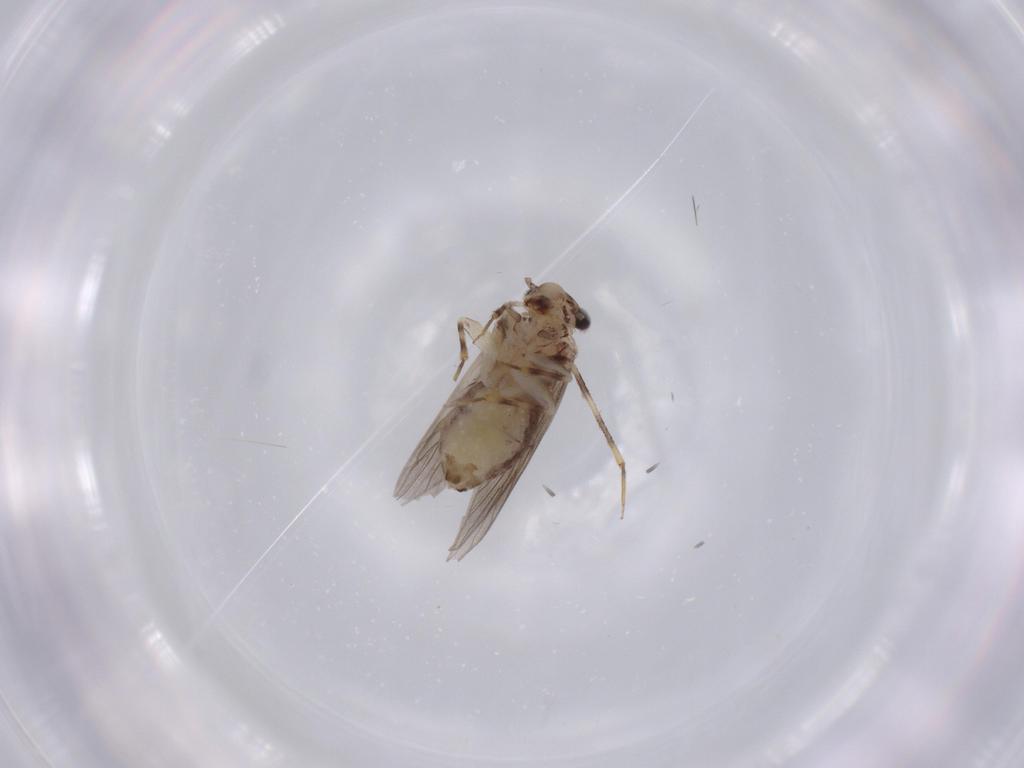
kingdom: Animalia
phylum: Arthropoda
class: Insecta
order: Psocodea
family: Lepidopsocidae
